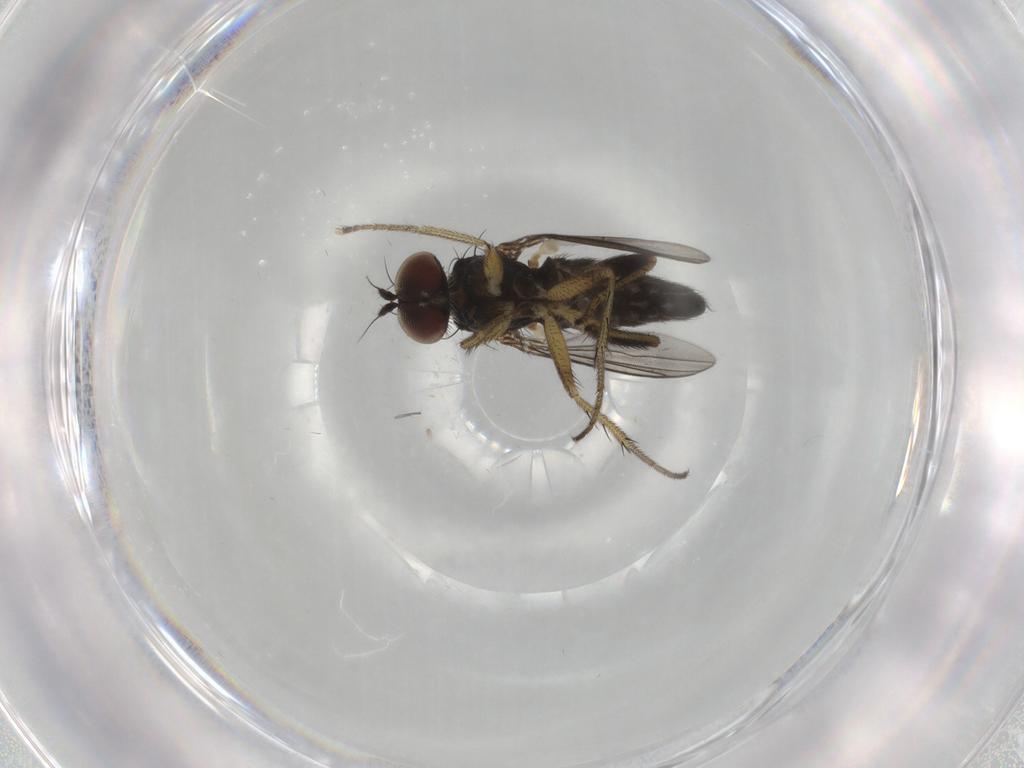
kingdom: Animalia
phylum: Arthropoda
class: Insecta
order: Diptera
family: Dolichopodidae
